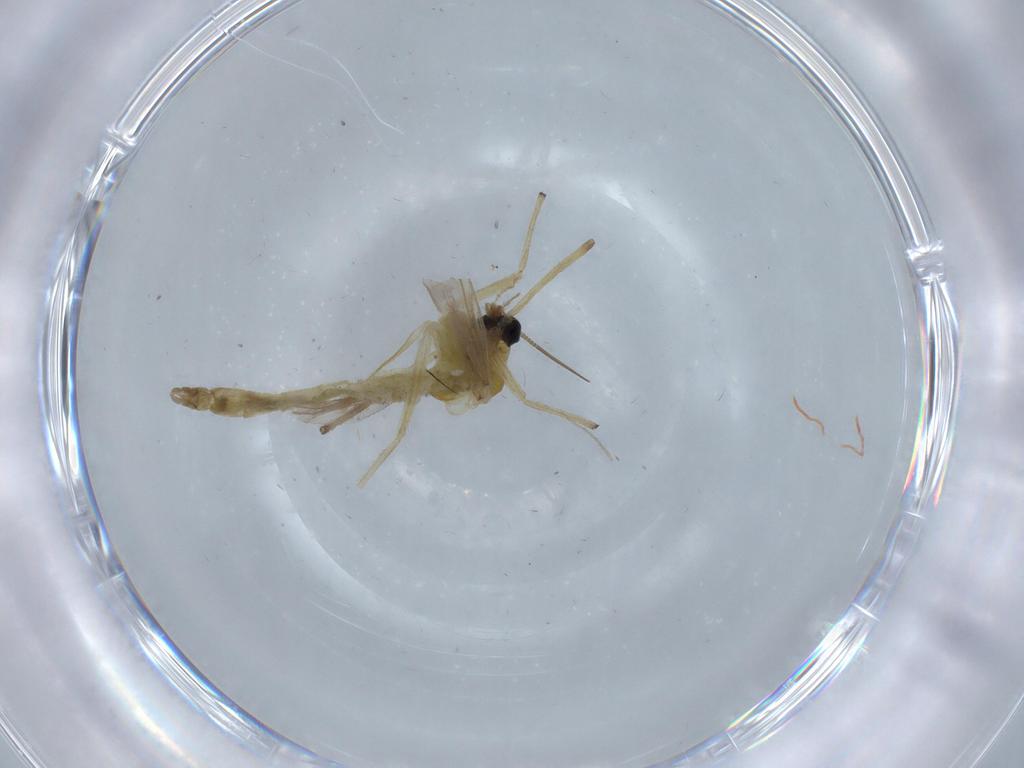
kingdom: Animalia
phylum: Arthropoda
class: Insecta
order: Diptera
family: Chironomidae
